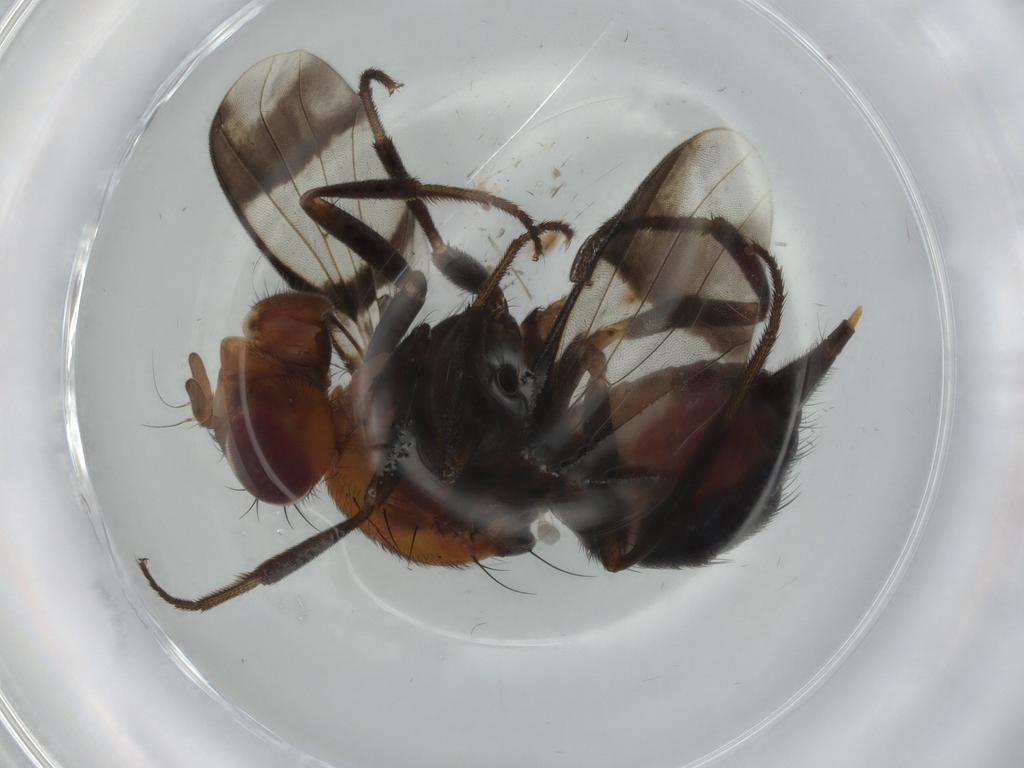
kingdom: Animalia
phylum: Arthropoda
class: Insecta
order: Diptera
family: Richardiidae
